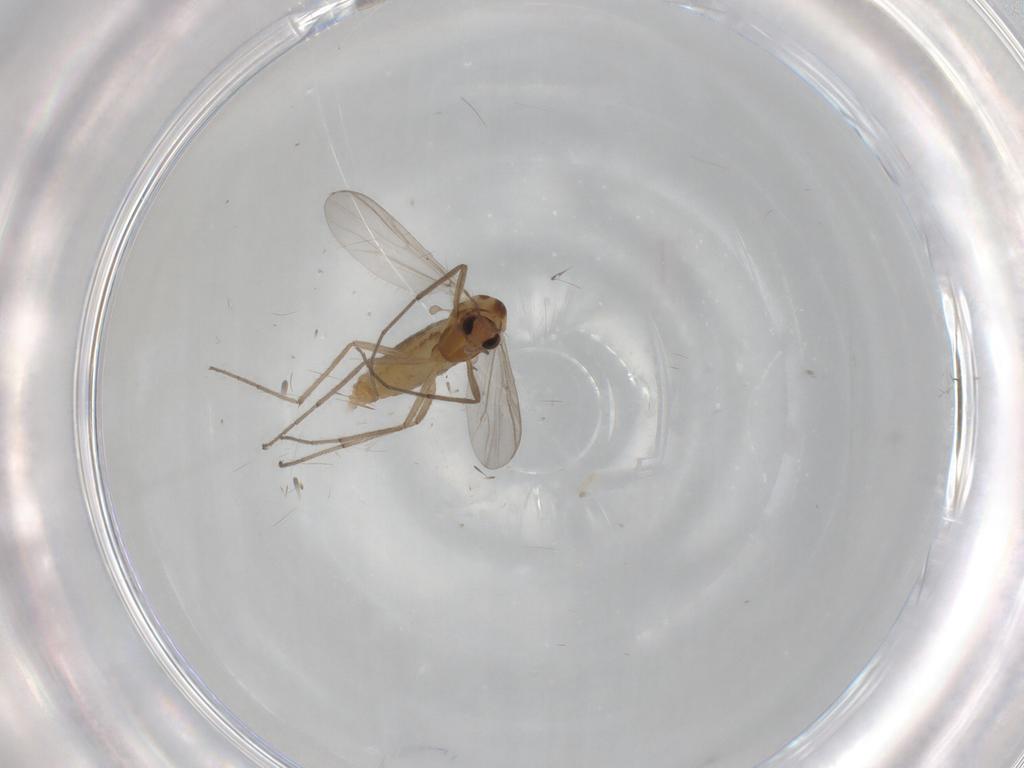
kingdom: Animalia
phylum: Arthropoda
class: Insecta
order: Diptera
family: Chironomidae
